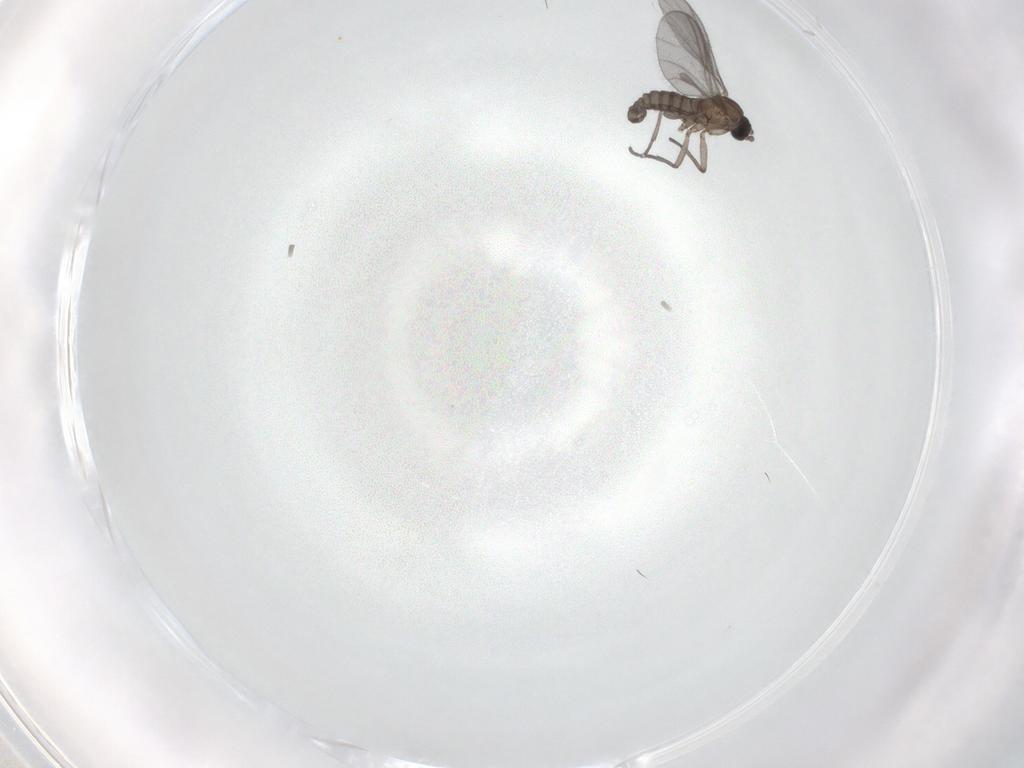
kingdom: Animalia
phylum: Arthropoda
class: Insecta
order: Diptera
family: Sciaridae
